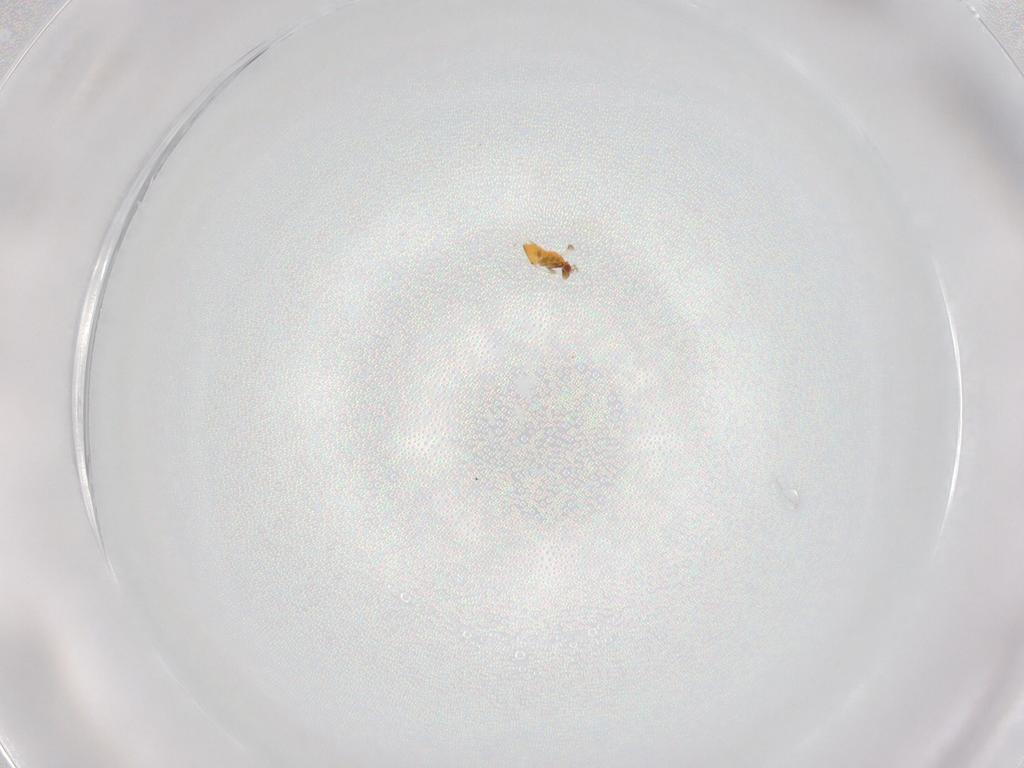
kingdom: Animalia
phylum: Arthropoda
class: Insecta
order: Hymenoptera
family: Trichogrammatidae
